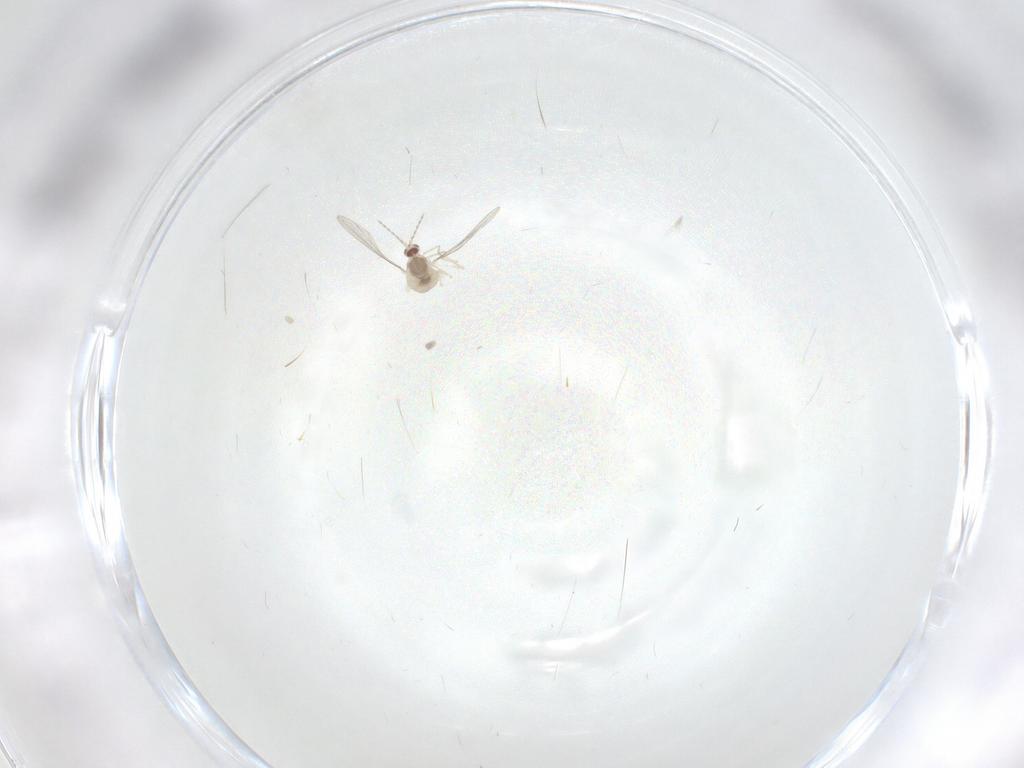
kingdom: Animalia
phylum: Arthropoda
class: Insecta
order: Diptera
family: Cecidomyiidae
